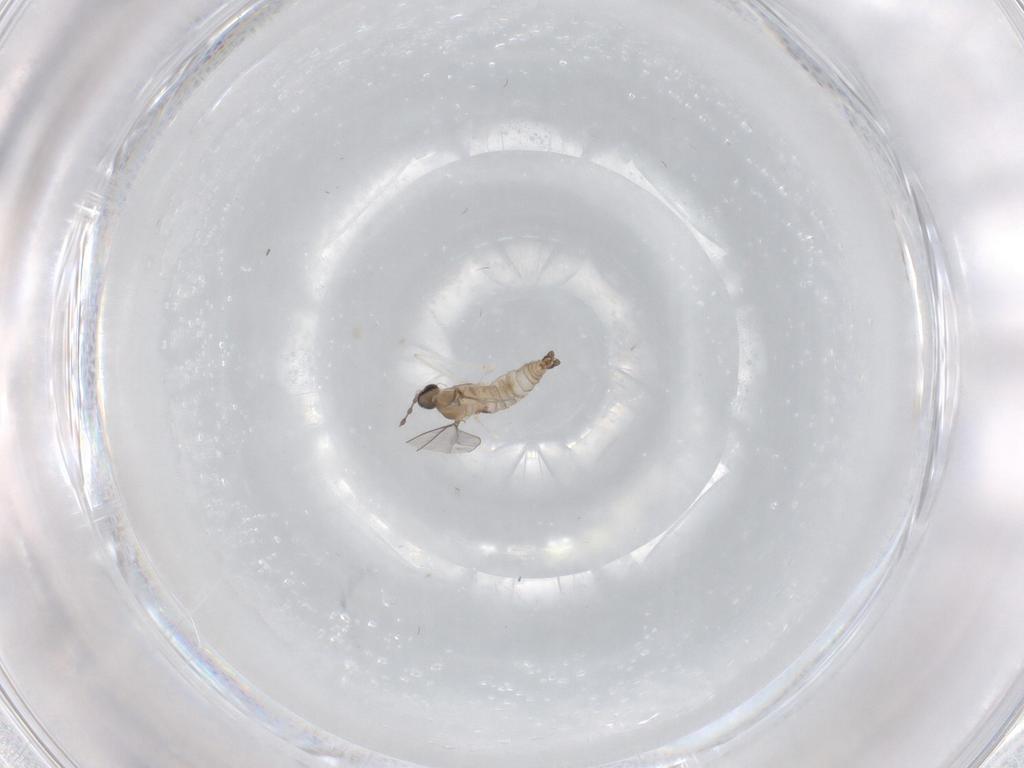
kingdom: Animalia
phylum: Arthropoda
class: Insecta
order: Diptera
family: Cecidomyiidae
